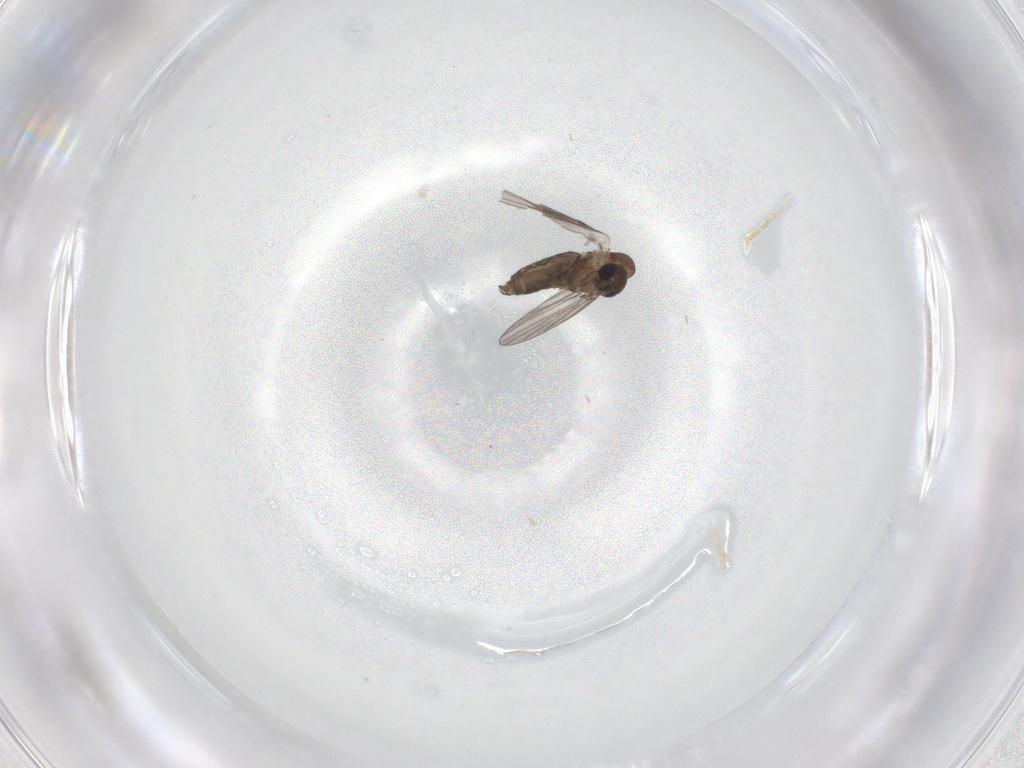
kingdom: Animalia
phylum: Arthropoda
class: Insecta
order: Diptera
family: Cecidomyiidae
